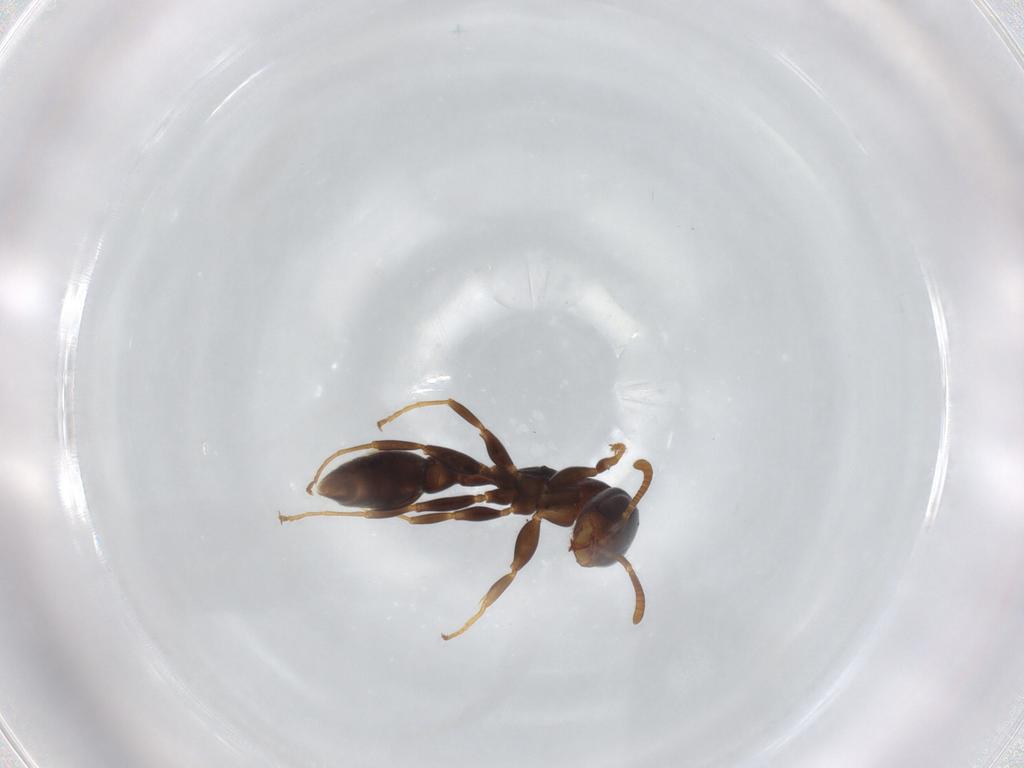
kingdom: Animalia
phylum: Arthropoda
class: Insecta
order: Hymenoptera
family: Formicidae
